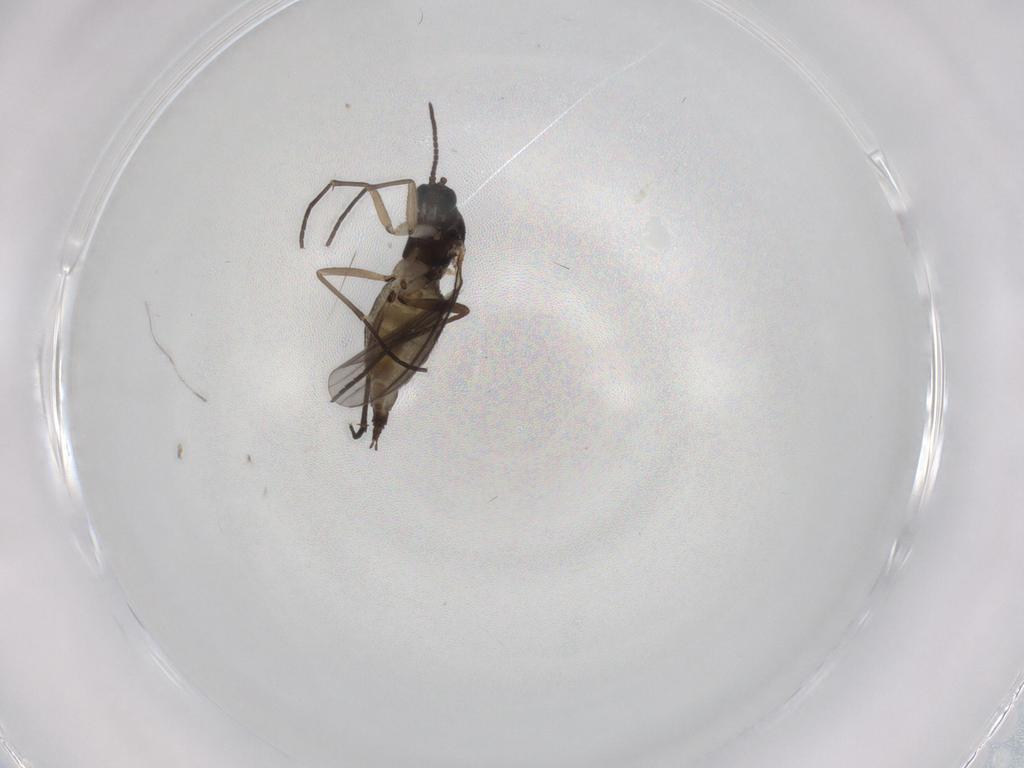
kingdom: Animalia
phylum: Arthropoda
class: Insecta
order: Diptera
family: Sciaridae
